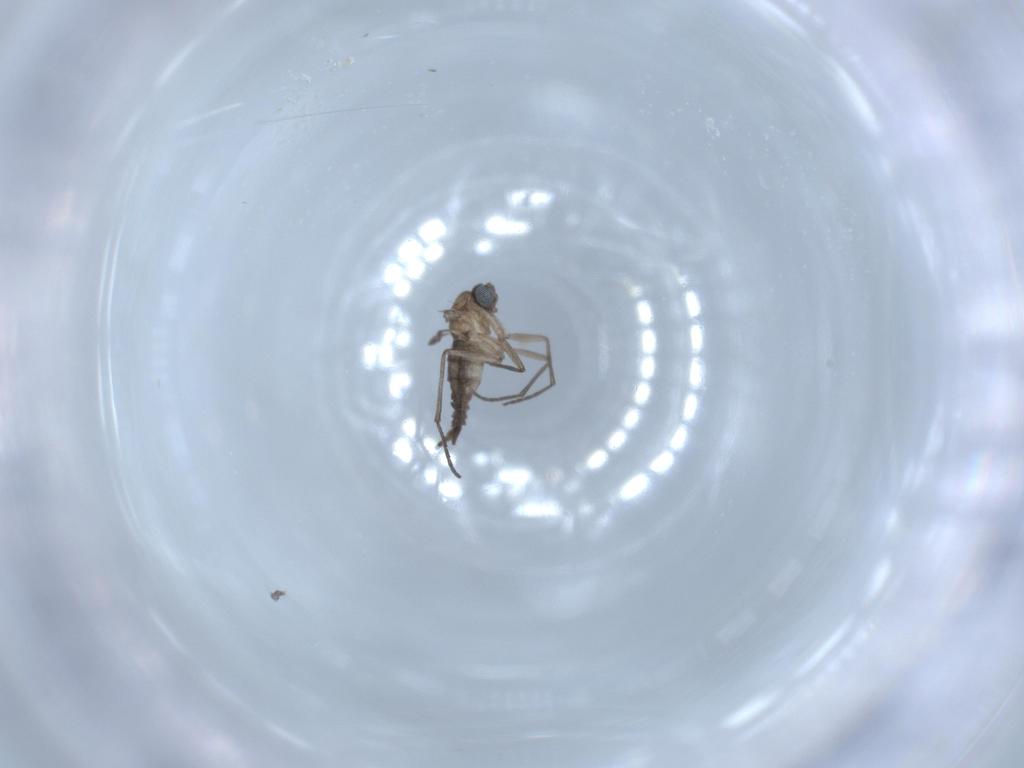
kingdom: Animalia
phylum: Arthropoda
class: Insecta
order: Diptera
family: Sciaridae
